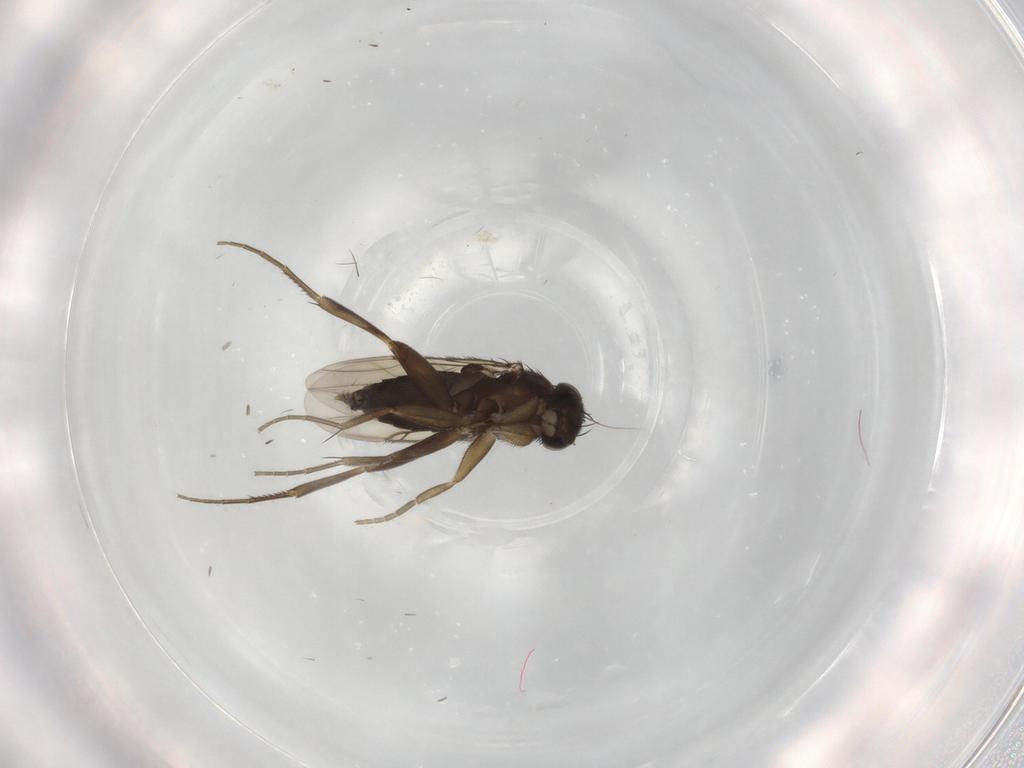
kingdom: Animalia
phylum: Arthropoda
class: Insecta
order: Diptera
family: Phoridae
